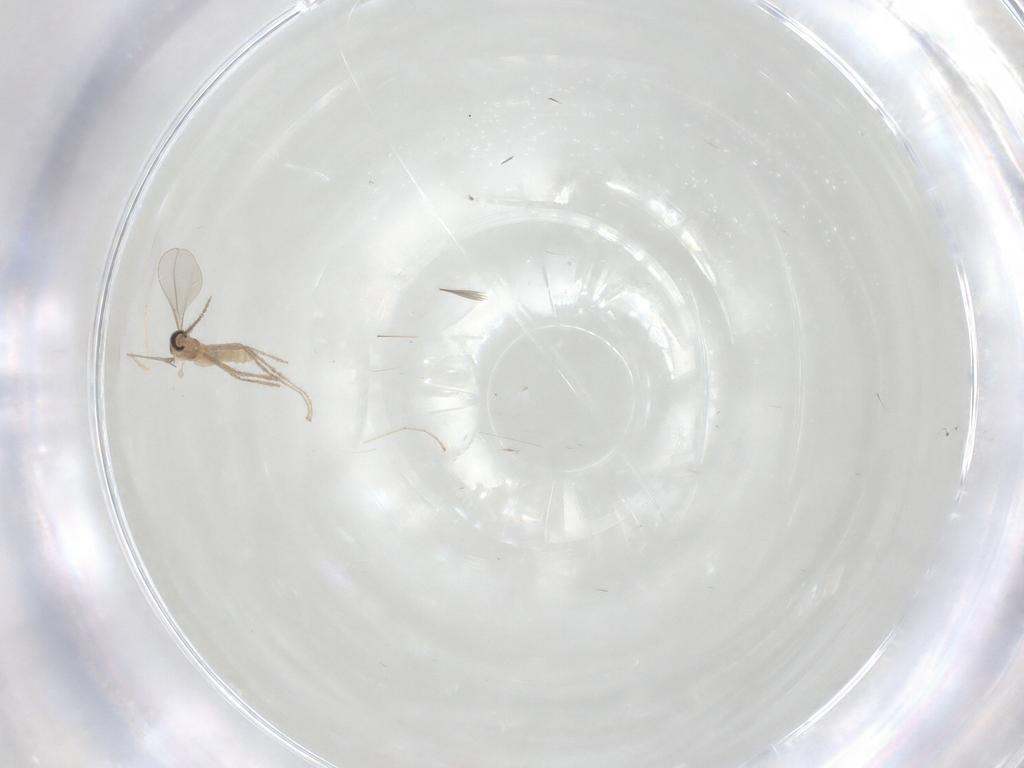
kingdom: Animalia
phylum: Arthropoda
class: Insecta
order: Diptera
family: Cecidomyiidae
